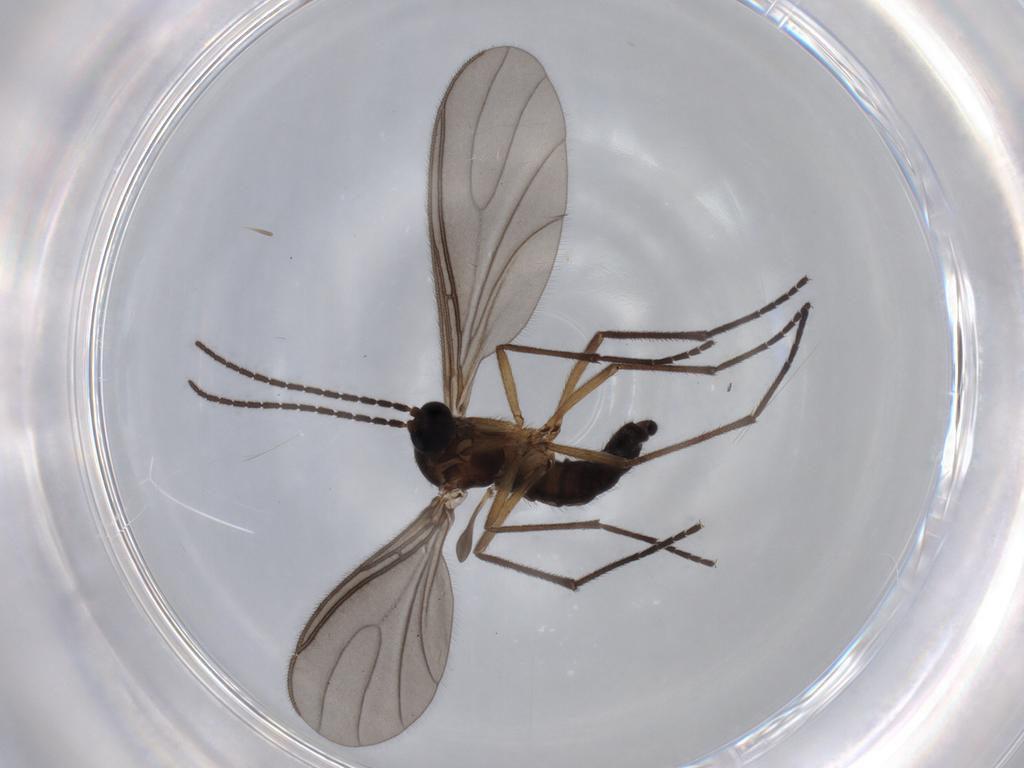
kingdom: Animalia
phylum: Arthropoda
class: Insecta
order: Diptera
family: Sciaridae
